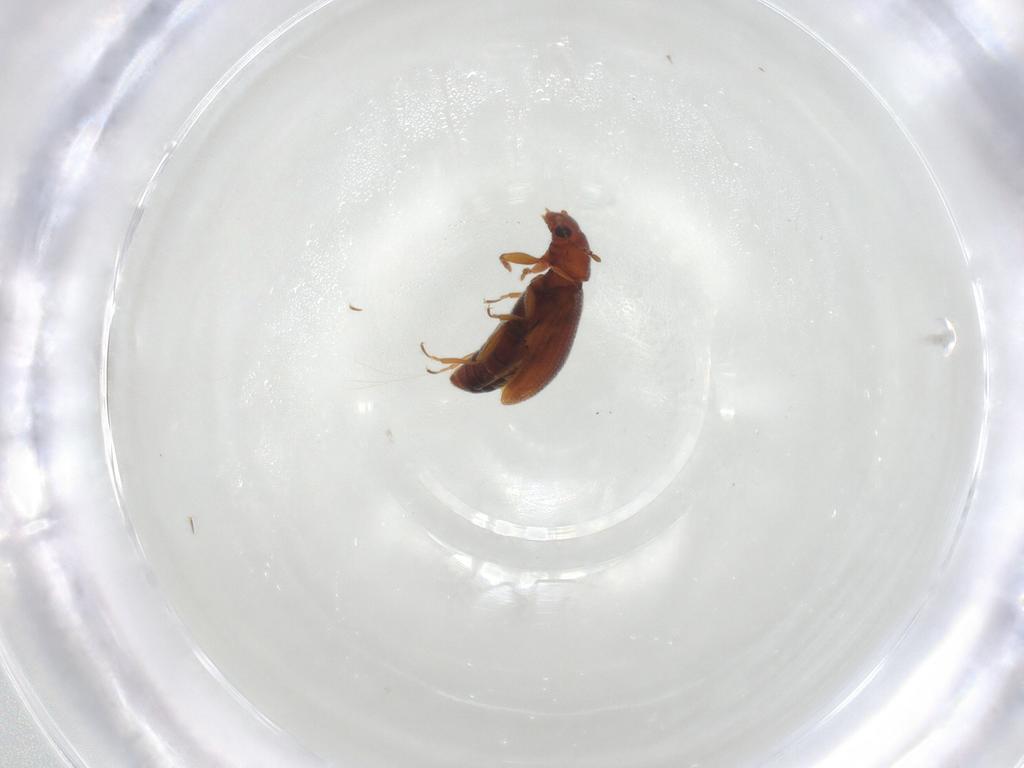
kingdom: Animalia
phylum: Arthropoda
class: Insecta
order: Coleoptera
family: Latridiidae
